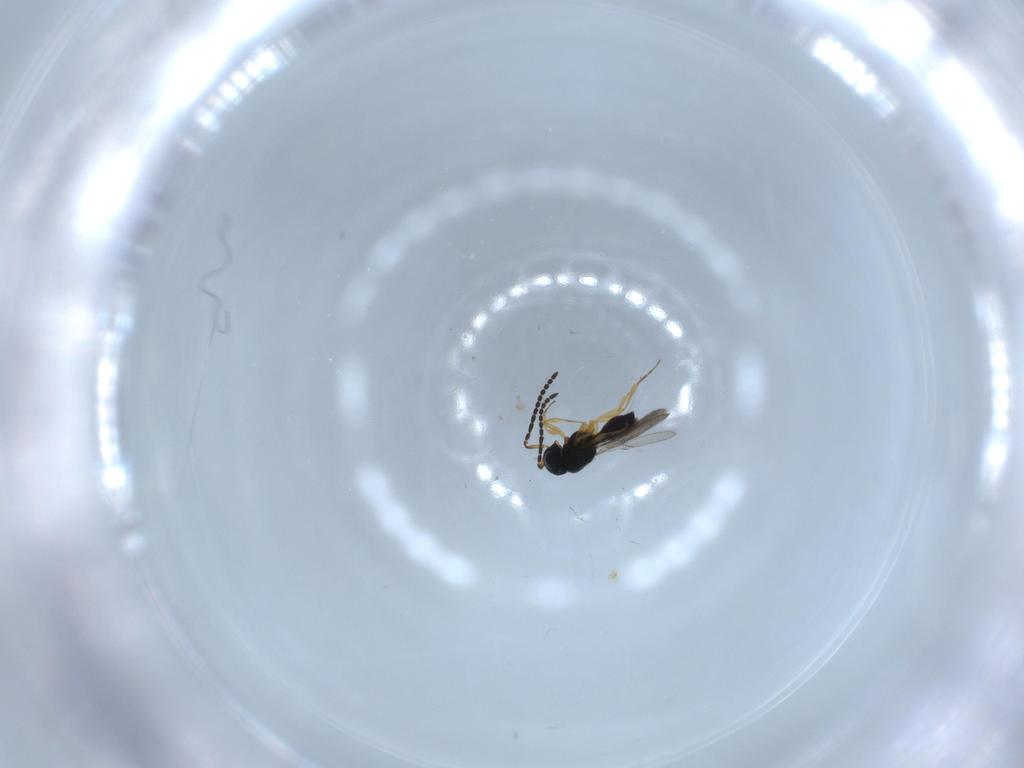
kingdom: Animalia
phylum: Arthropoda
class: Insecta
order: Hymenoptera
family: Scelionidae
